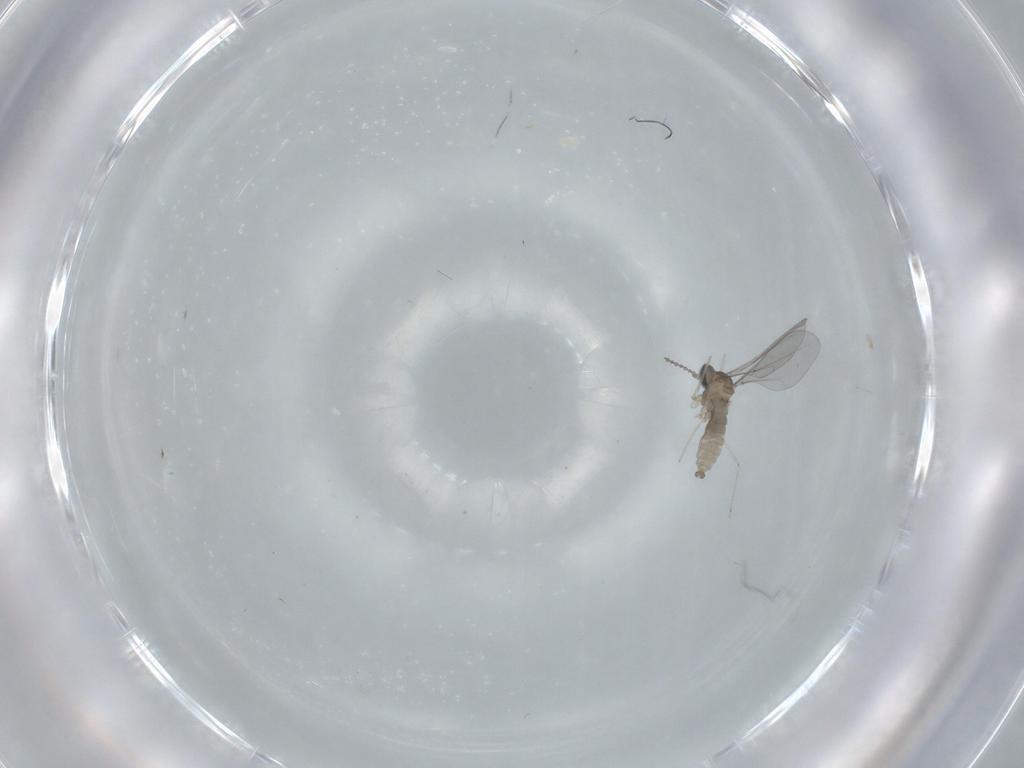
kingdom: Animalia
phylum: Arthropoda
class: Insecta
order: Diptera
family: Cecidomyiidae
